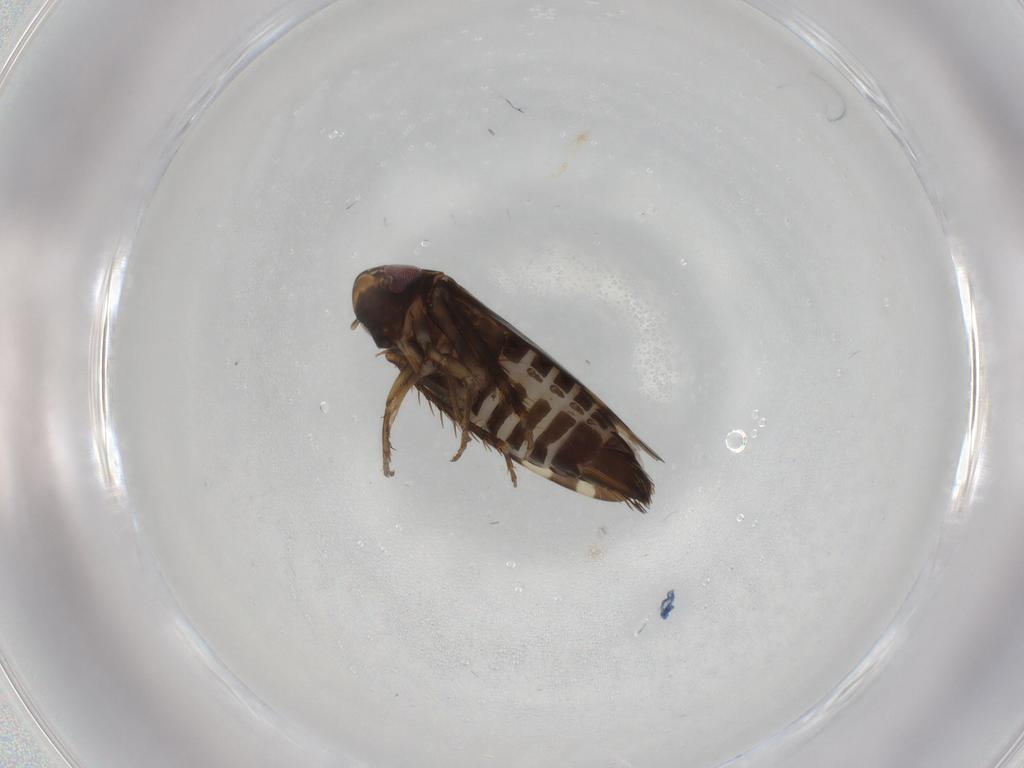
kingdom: Animalia
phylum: Arthropoda
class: Insecta
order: Hemiptera
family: Cicadellidae
